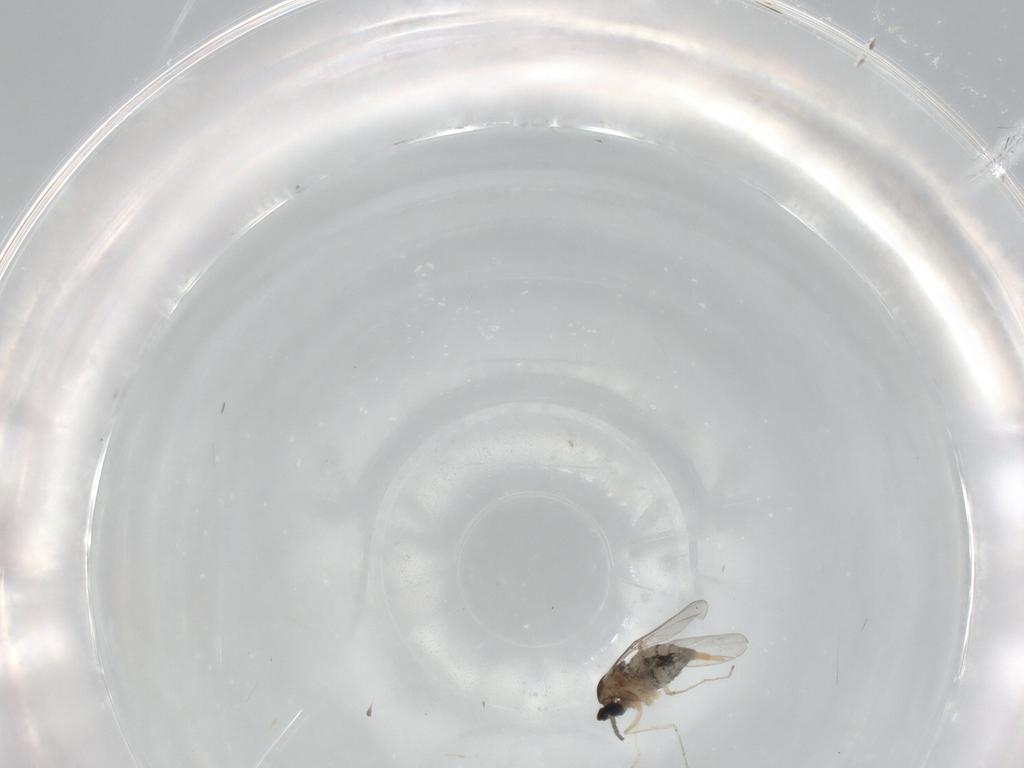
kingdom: Animalia
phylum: Arthropoda
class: Insecta
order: Diptera
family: Cecidomyiidae
